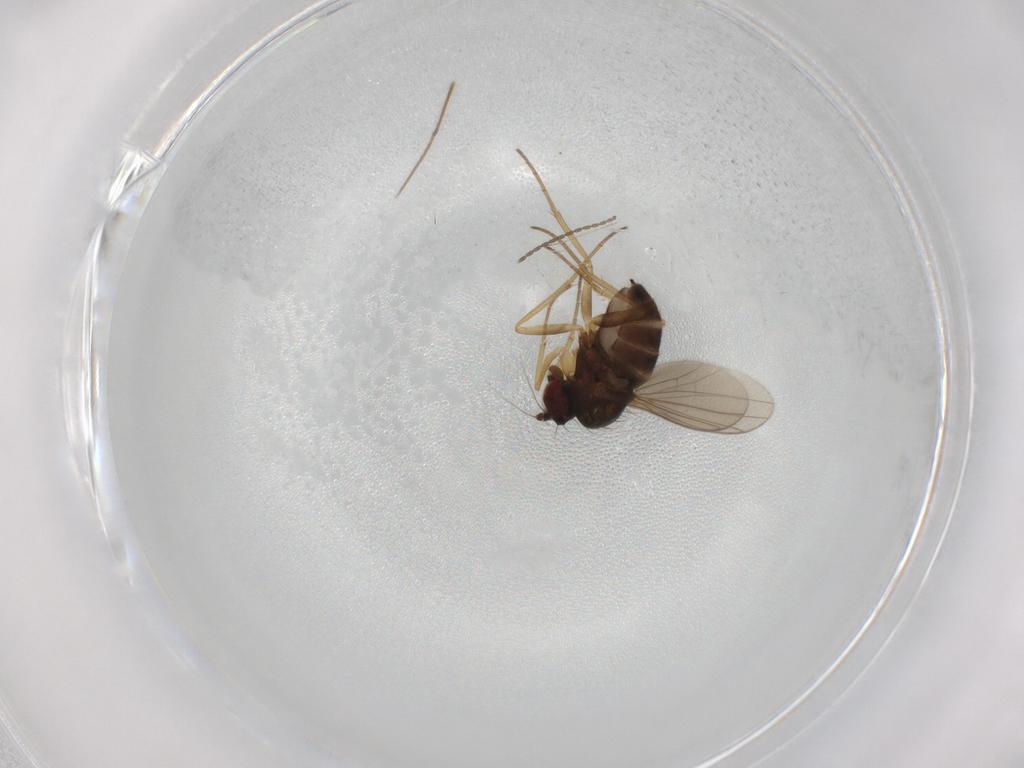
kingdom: Animalia
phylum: Arthropoda
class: Insecta
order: Diptera
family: Dolichopodidae
